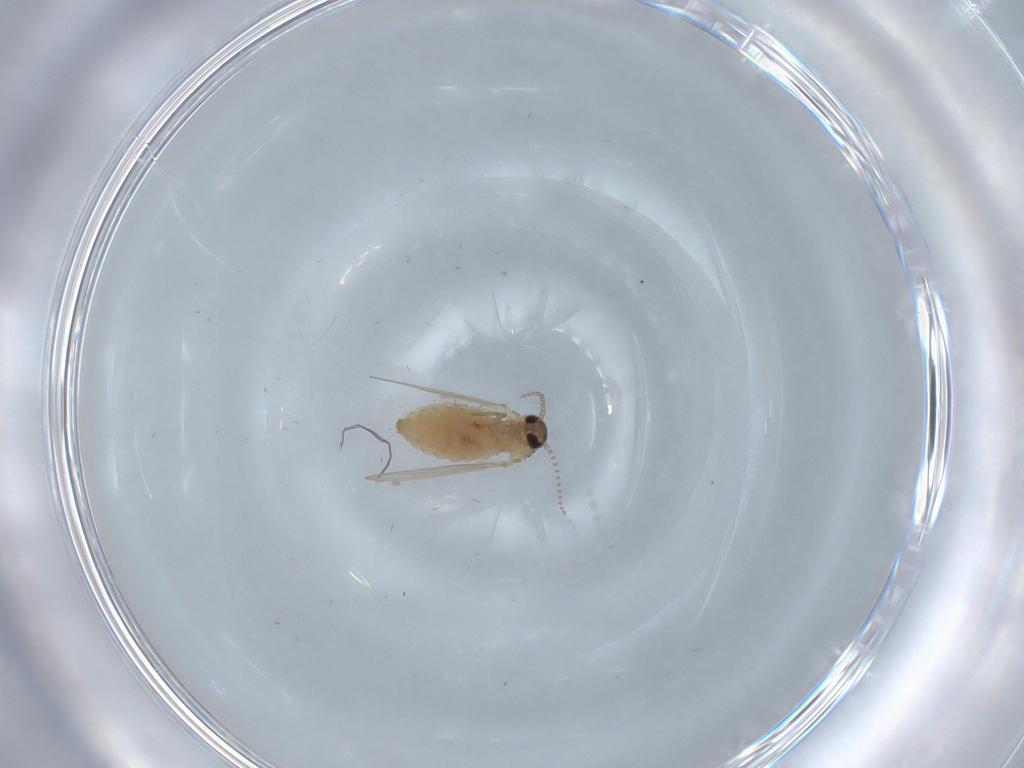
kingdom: Animalia
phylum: Arthropoda
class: Insecta
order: Diptera
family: Psychodidae
